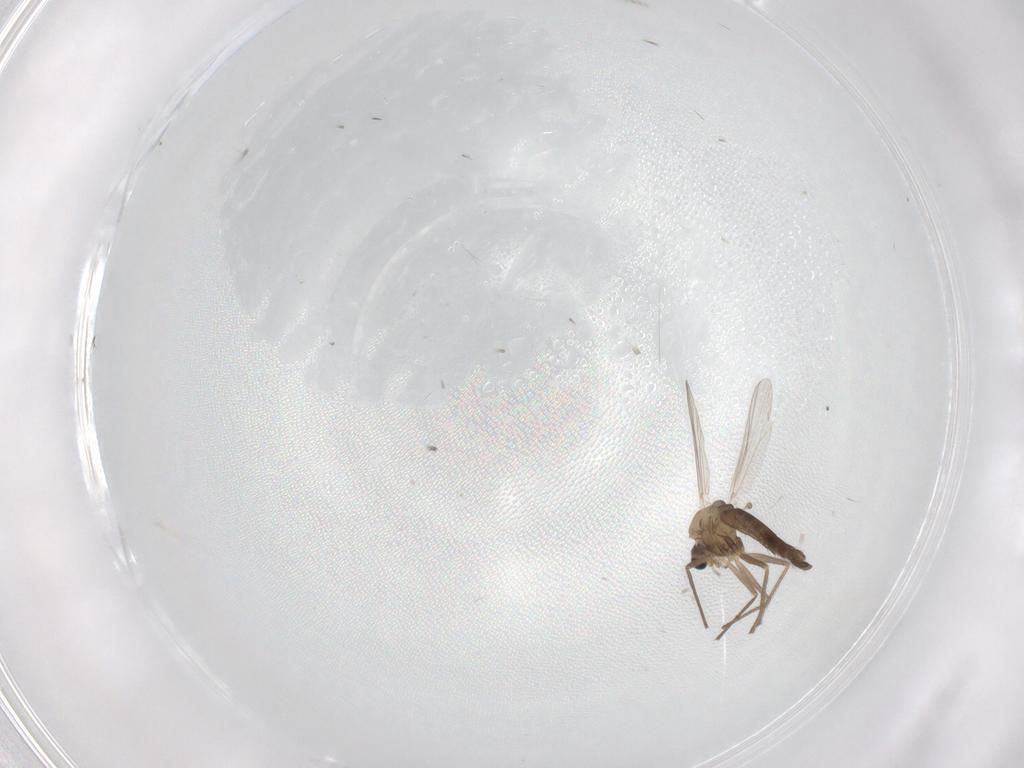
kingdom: Animalia
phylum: Arthropoda
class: Insecta
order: Diptera
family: Chironomidae
